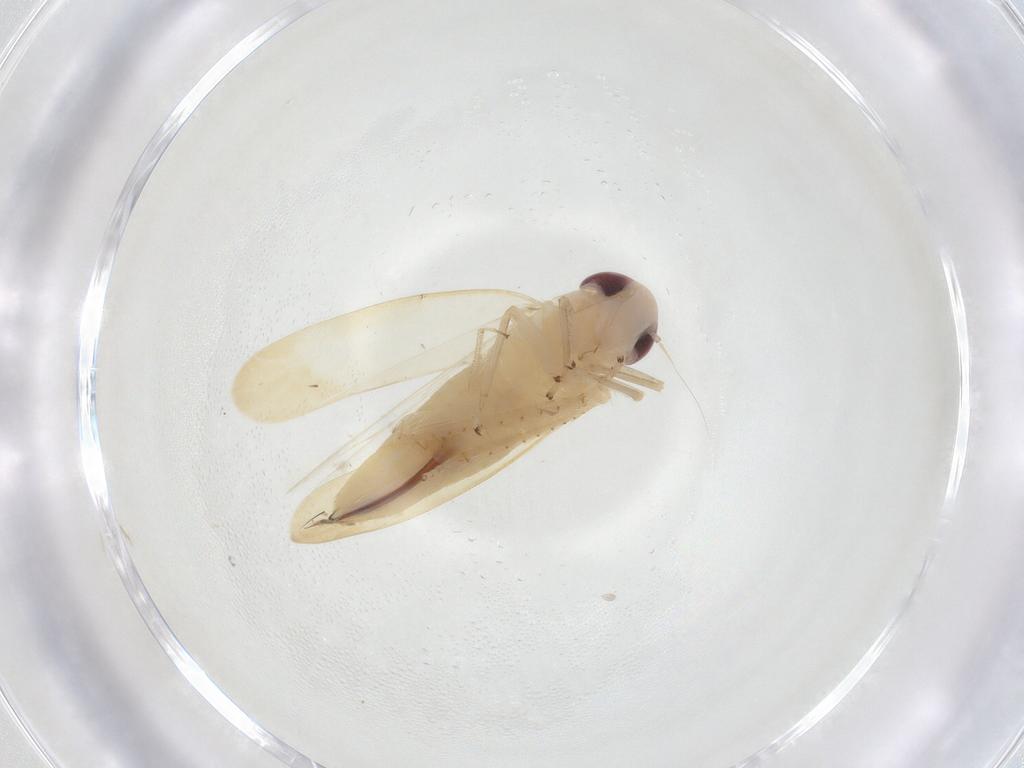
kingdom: Animalia
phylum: Arthropoda
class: Insecta
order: Hemiptera
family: Cicadellidae
